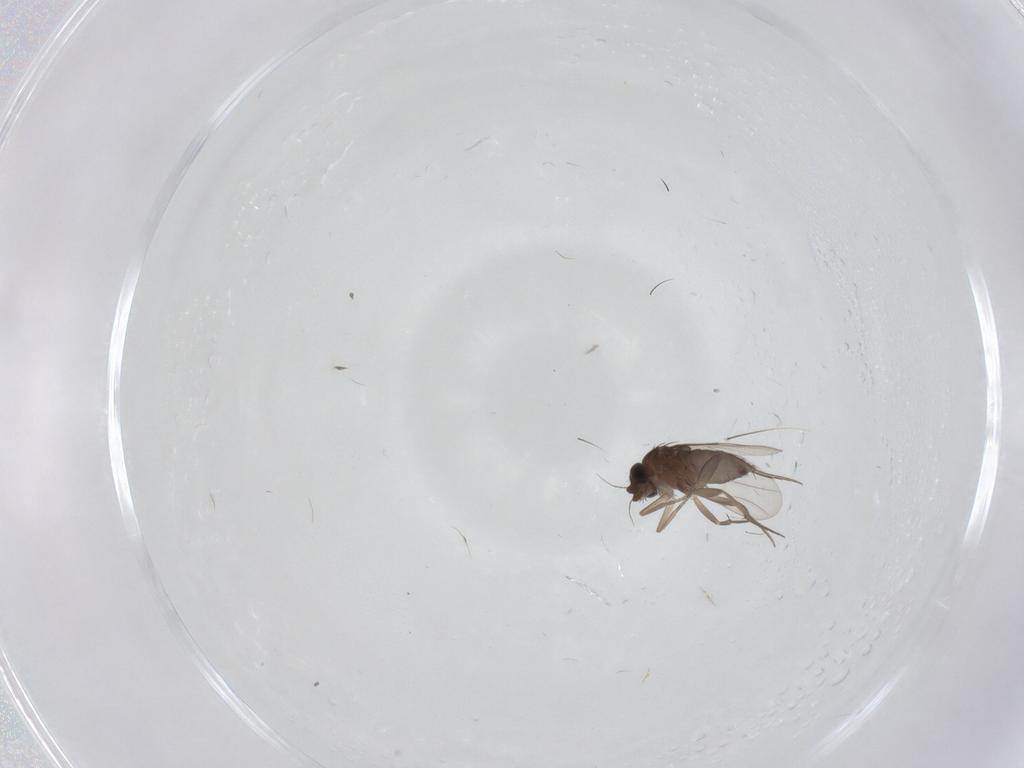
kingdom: Animalia
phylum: Arthropoda
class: Insecta
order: Diptera
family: Phoridae
